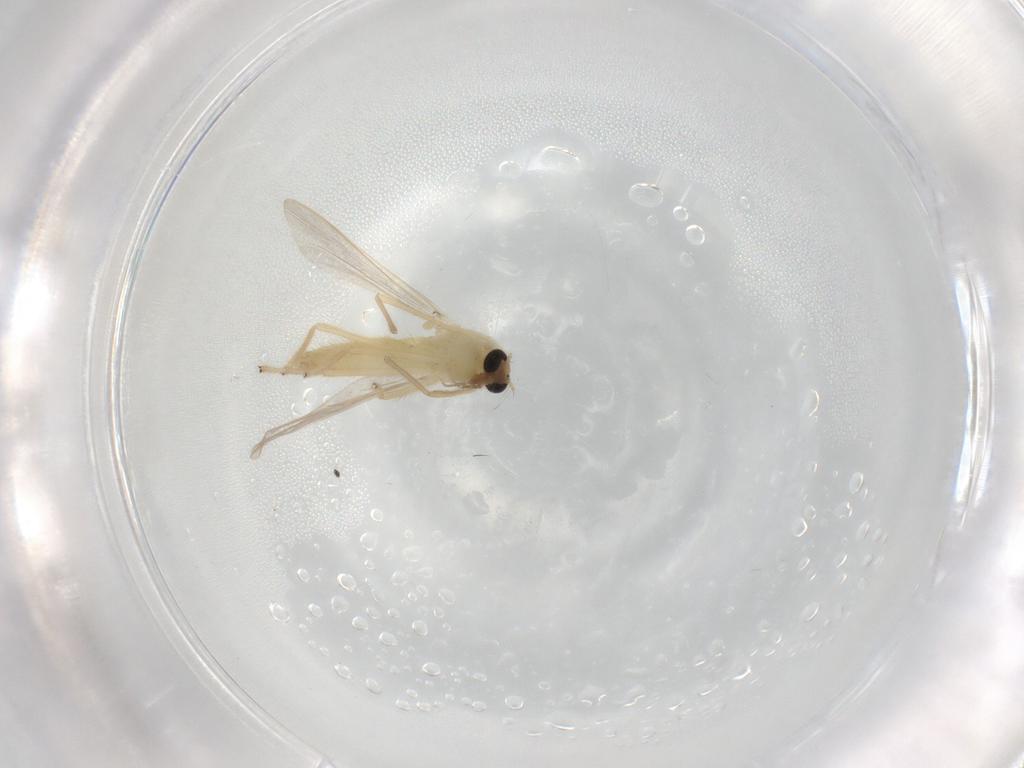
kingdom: Animalia
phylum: Arthropoda
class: Insecta
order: Diptera
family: Chironomidae
